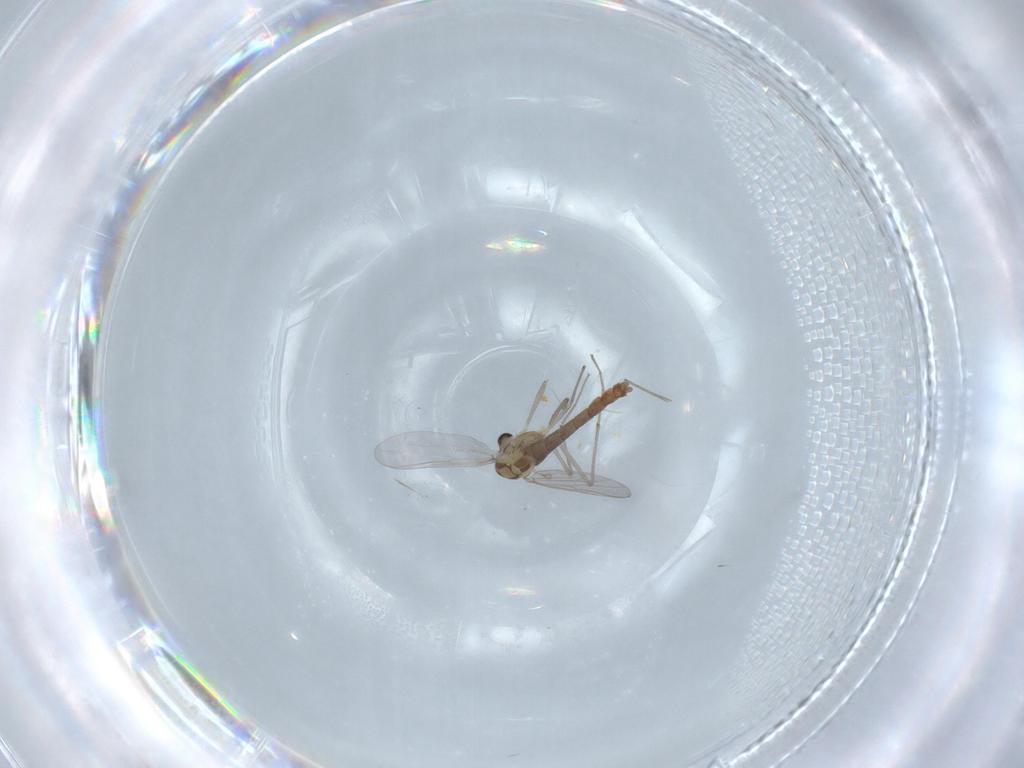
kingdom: Animalia
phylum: Arthropoda
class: Insecta
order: Diptera
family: Chironomidae
